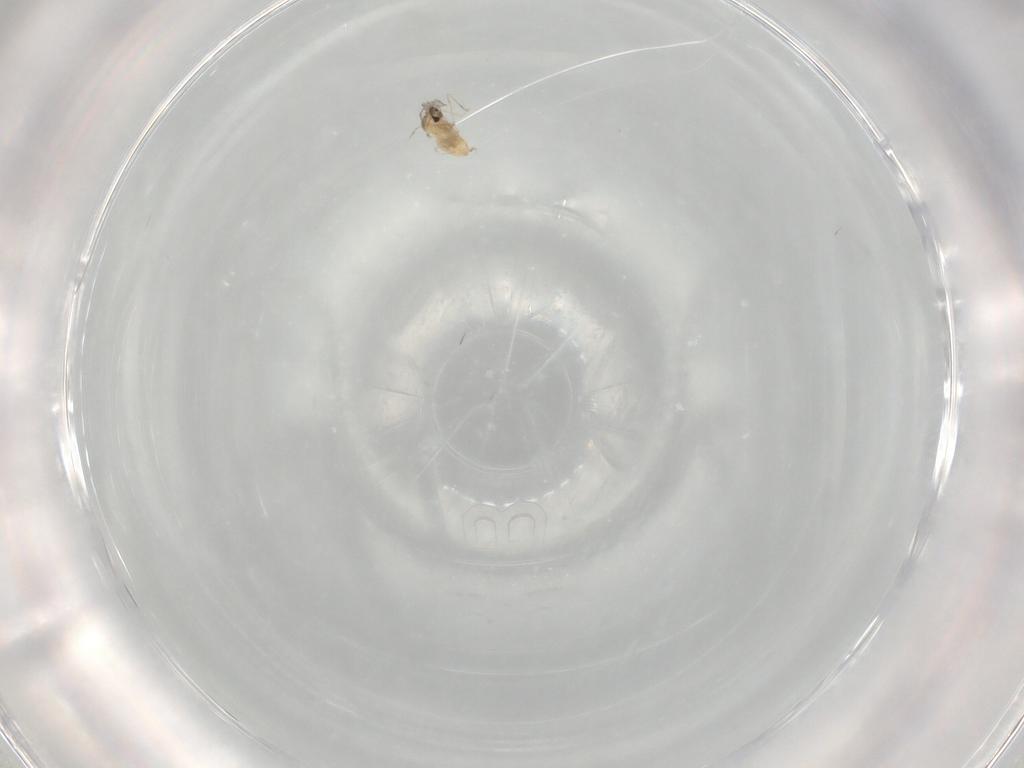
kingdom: Animalia
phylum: Arthropoda
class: Insecta
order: Diptera
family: Cecidomyiidae
